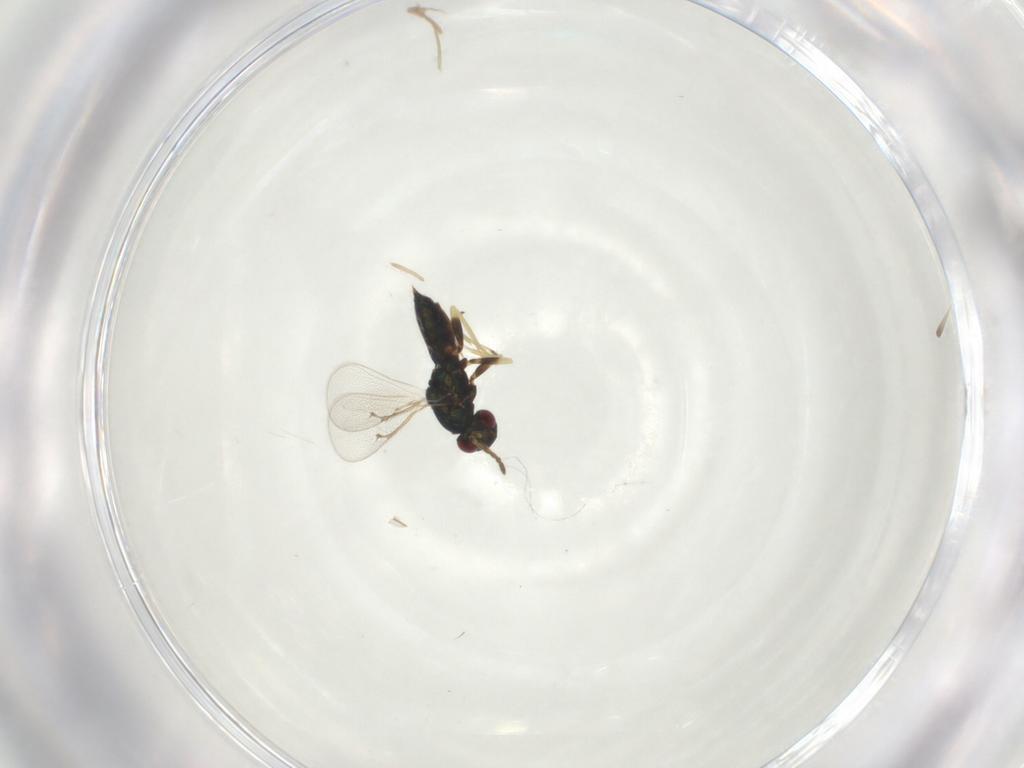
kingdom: Animalia
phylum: Arthropoda
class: Insecta
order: Hymenoptera
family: Eulophidae
